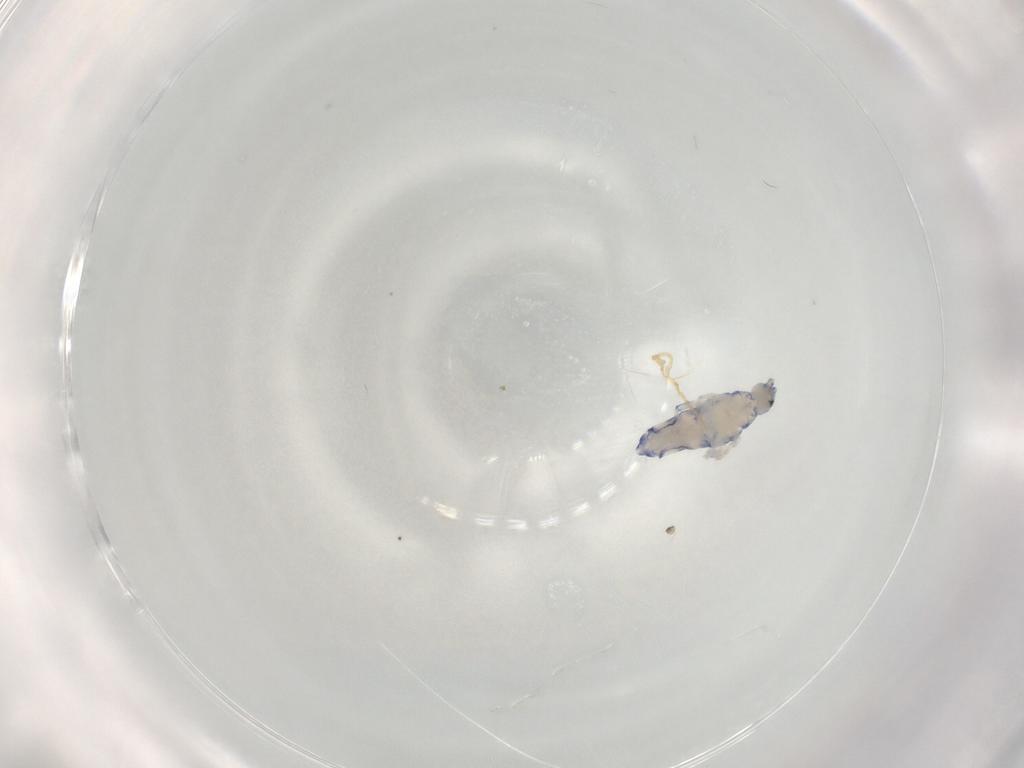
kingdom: Animalia
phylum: Arthropoda
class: Collembola
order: Entomobryomorpha
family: Entomobryidae
